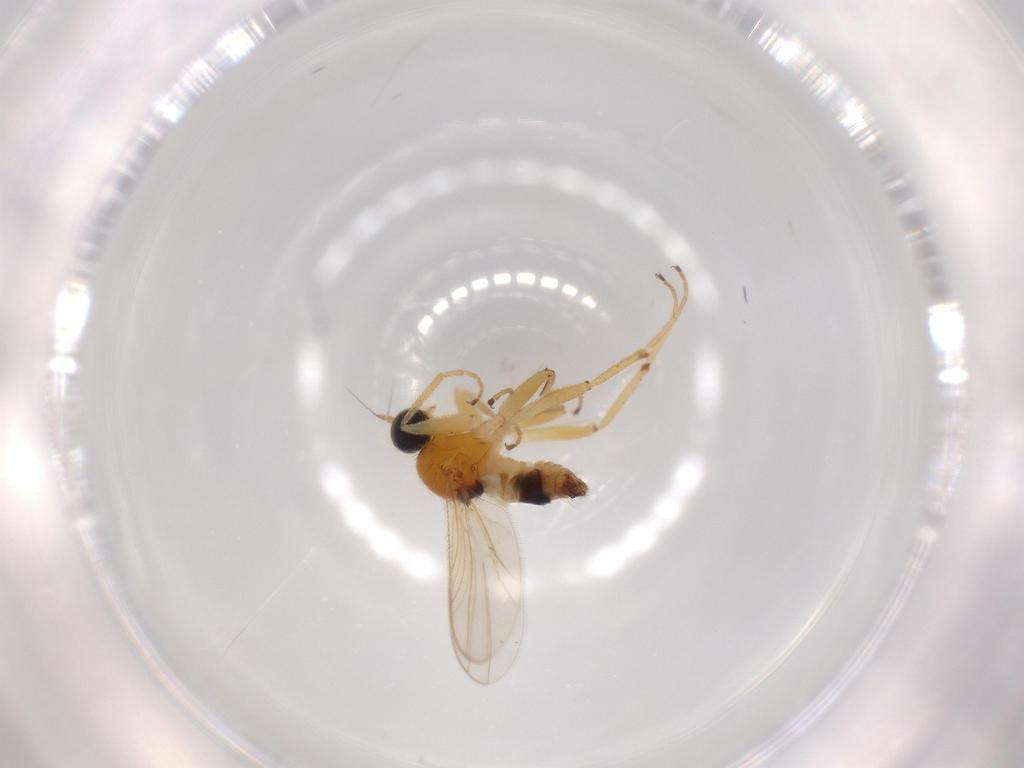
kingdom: Animalia
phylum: Arthropoda
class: Insecta
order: Diptera
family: Hybotidae
